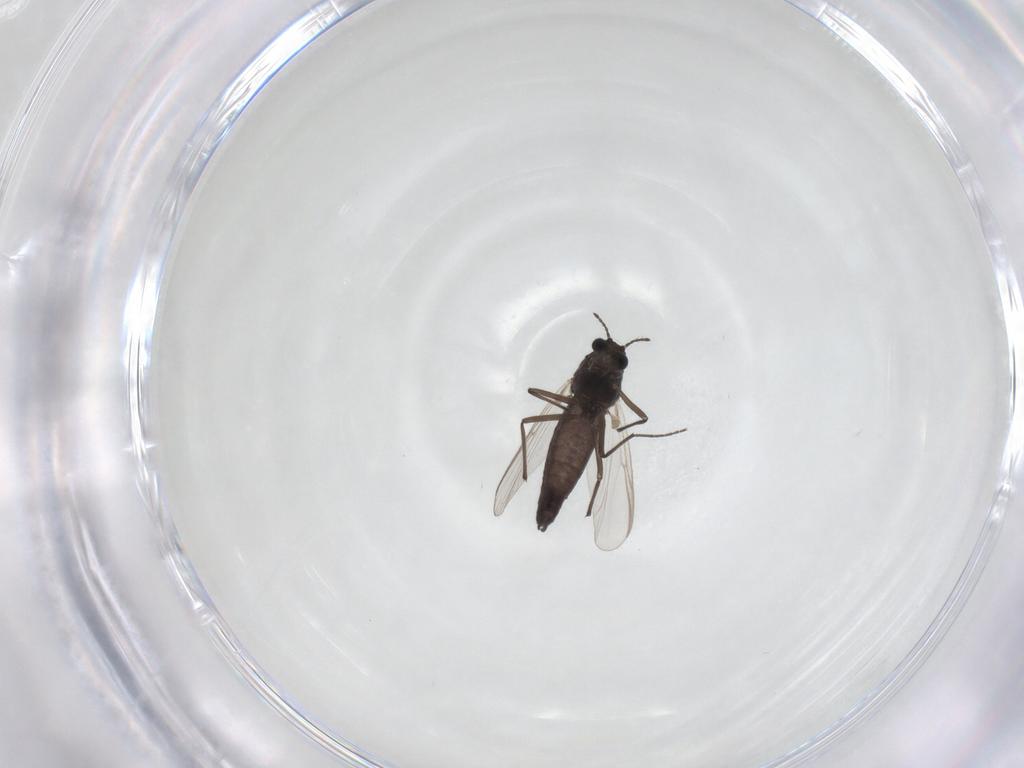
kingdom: Animalia
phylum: Arthropoda
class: Insecta
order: Diptera
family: Chironomidae
